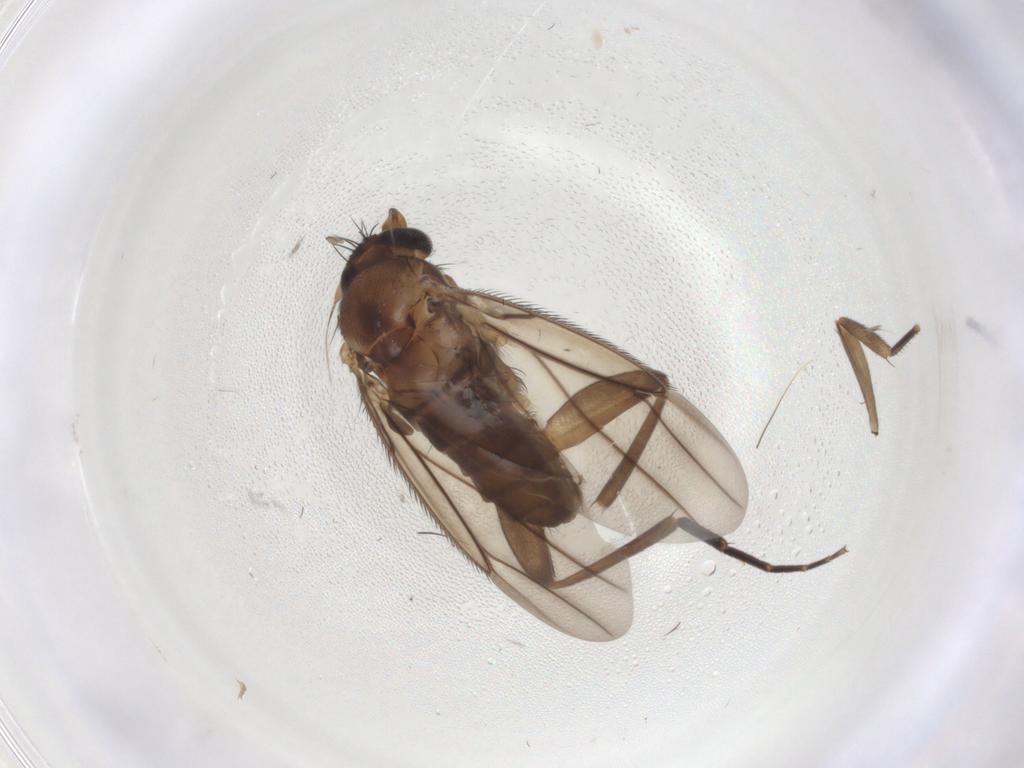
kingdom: Animalia
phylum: Arthropoda
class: Insecta
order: Diptera
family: Phoridae
